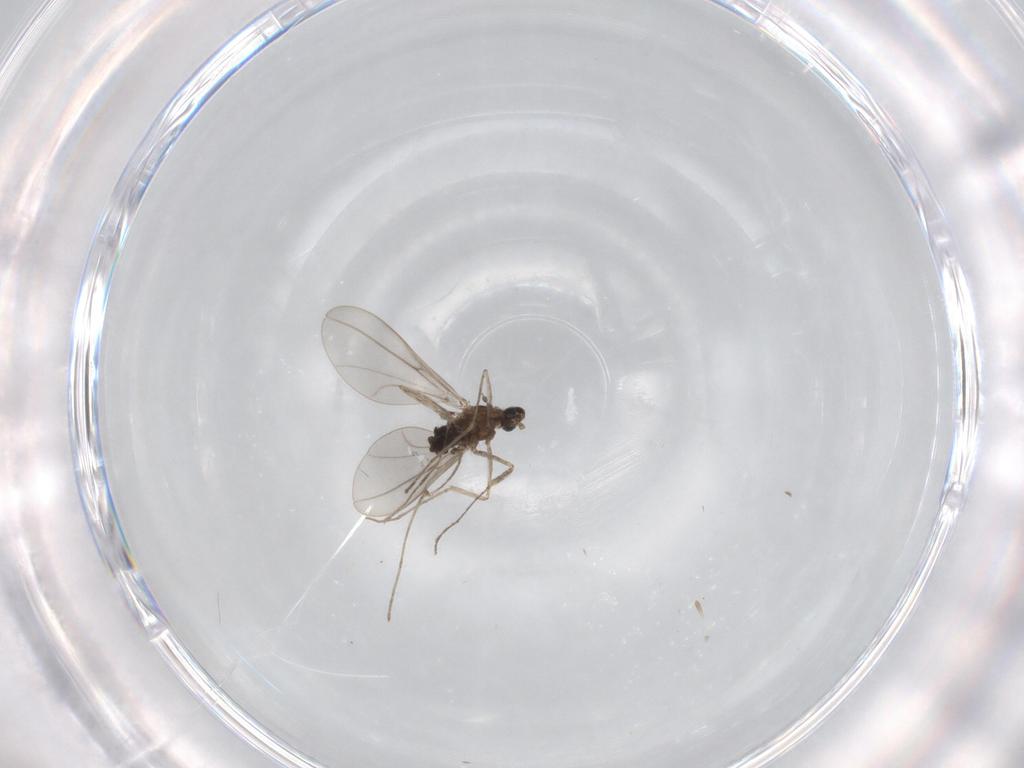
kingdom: Animalia
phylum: Arthropoda
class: Insecta
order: Diptera
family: Cecidomyiidae
